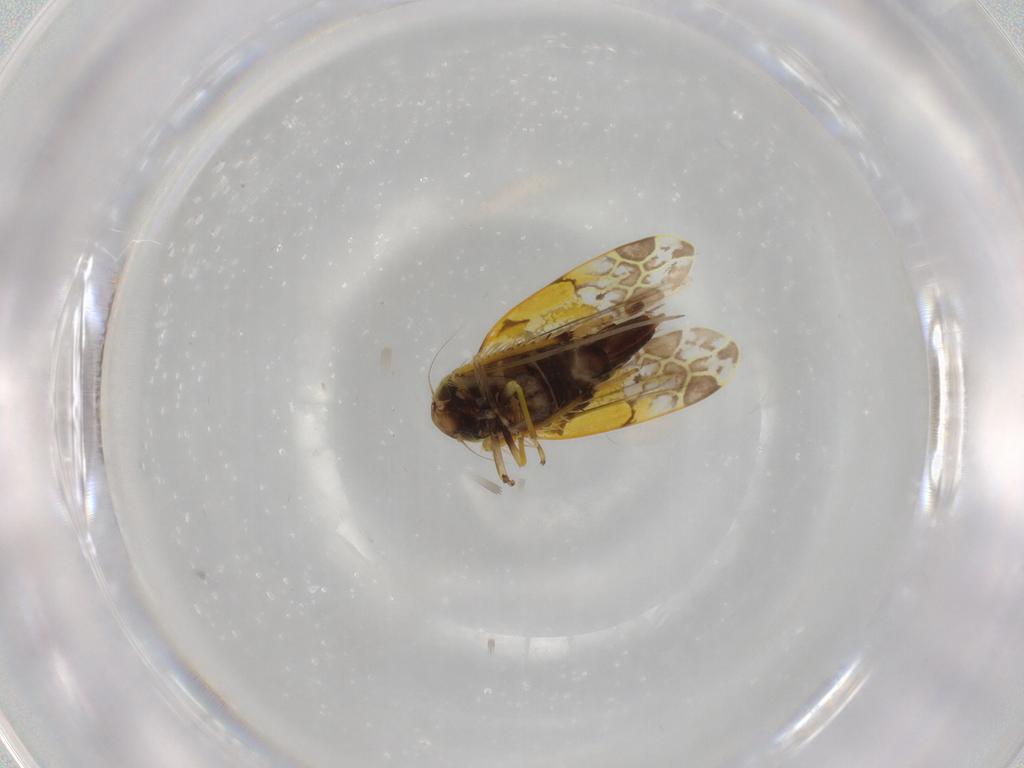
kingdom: Animalia
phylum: Arthropoda
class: Insecta
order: Hemiptera
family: Cicadellidae
